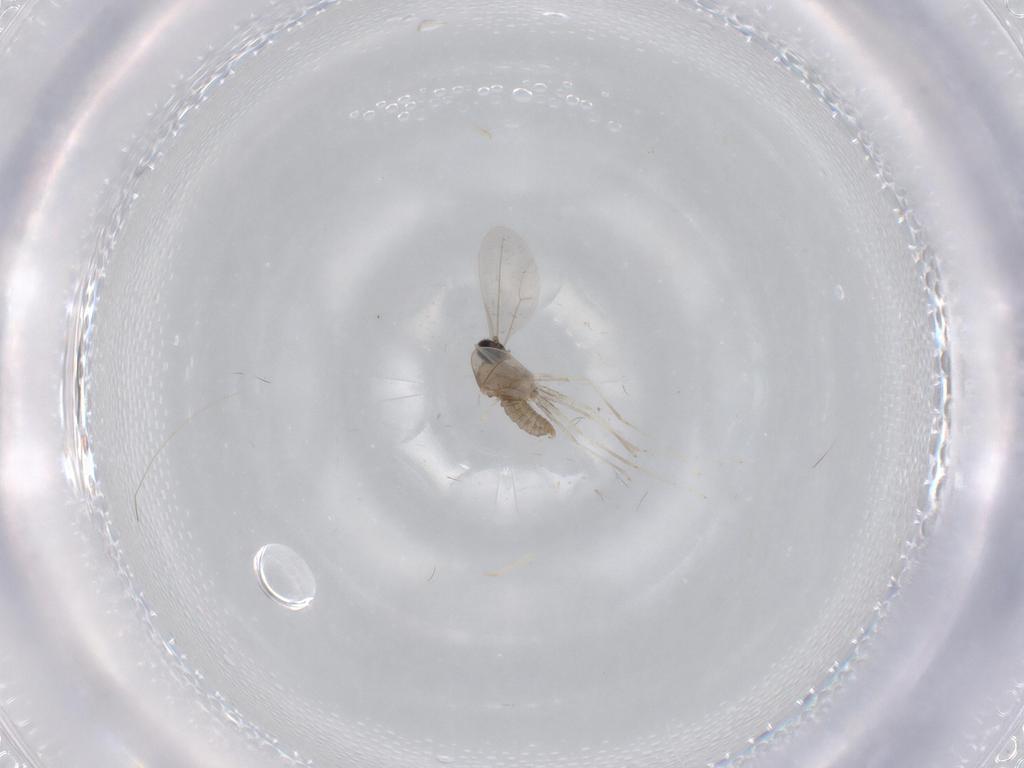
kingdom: Animalia
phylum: Arthropoda
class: Insecta
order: Diptera
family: Cecidomyiidae
